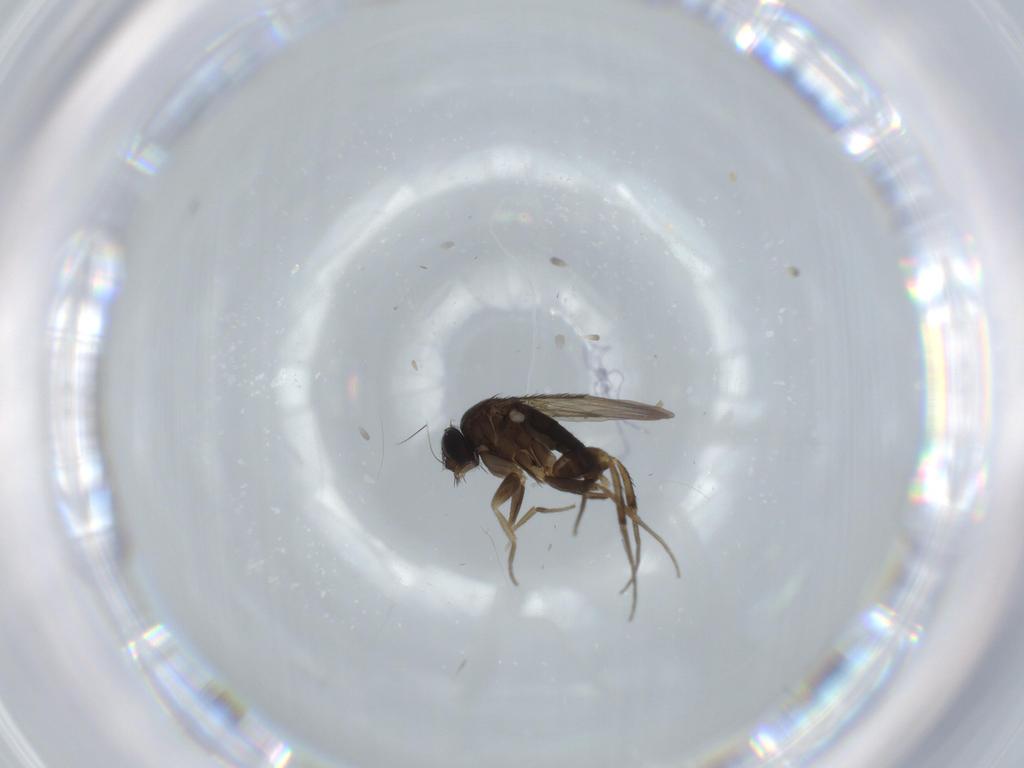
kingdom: Animalia
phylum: Arthropoda
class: Insecta
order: Diptera
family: Phoridae
